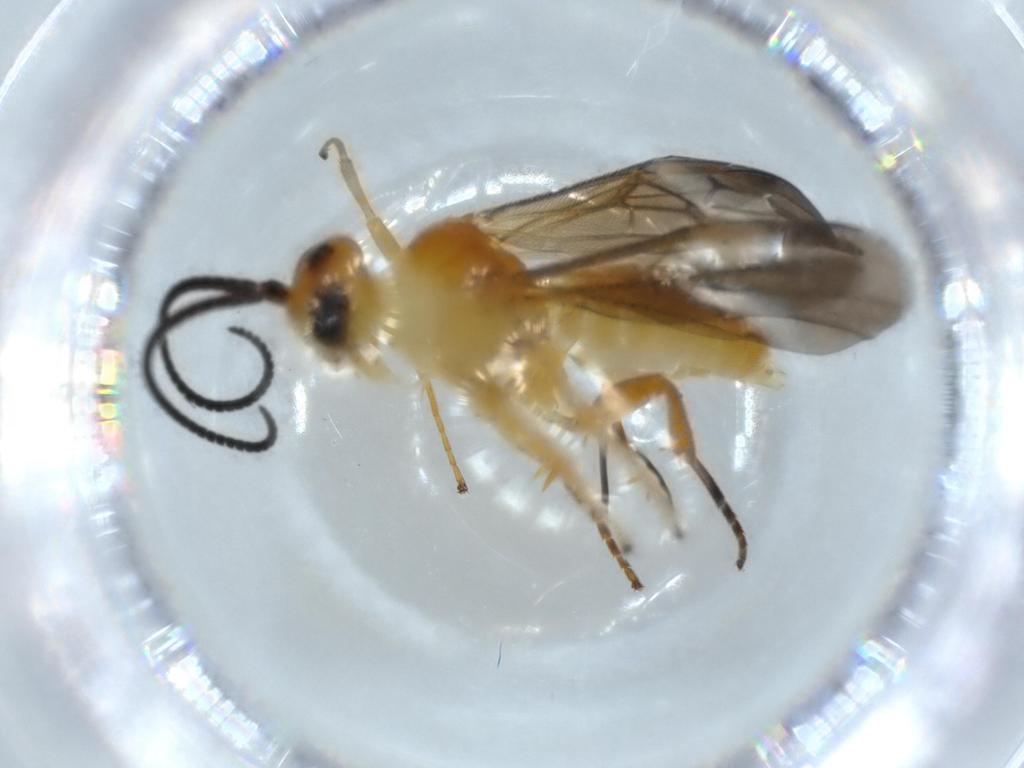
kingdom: Animalia
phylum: Arthropoda
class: Insecta
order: Hymenoptera
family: Braconidae
